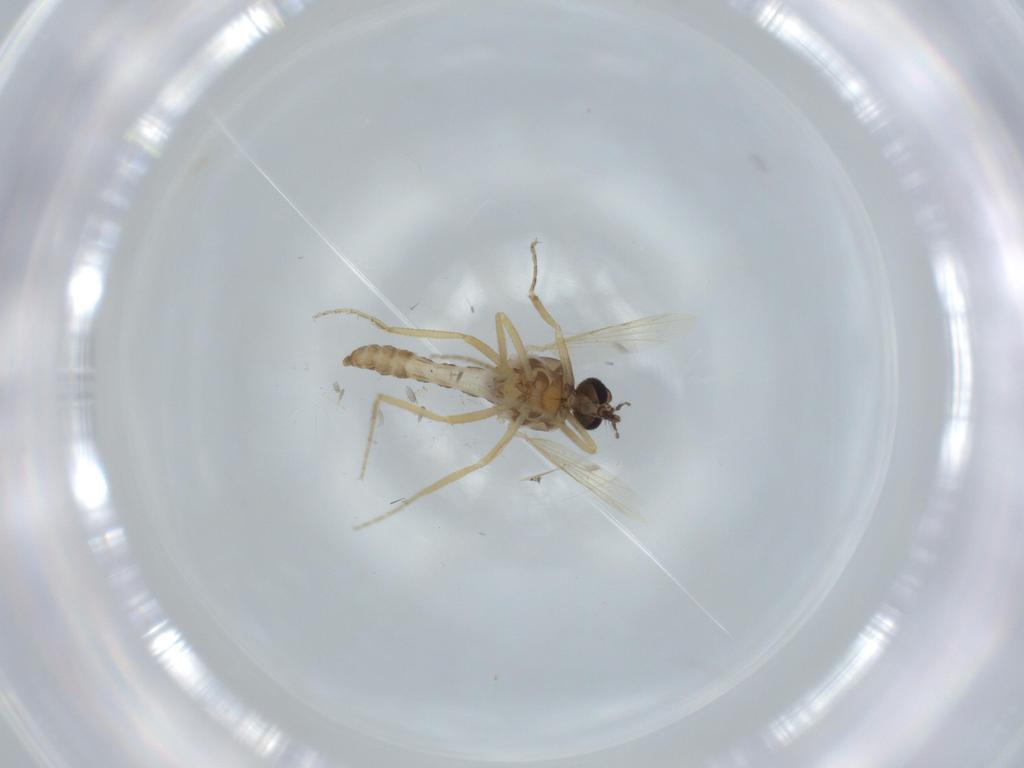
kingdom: Animalia
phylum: Arthropoda
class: Insecta
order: Diptera
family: Ceratopogonidae
